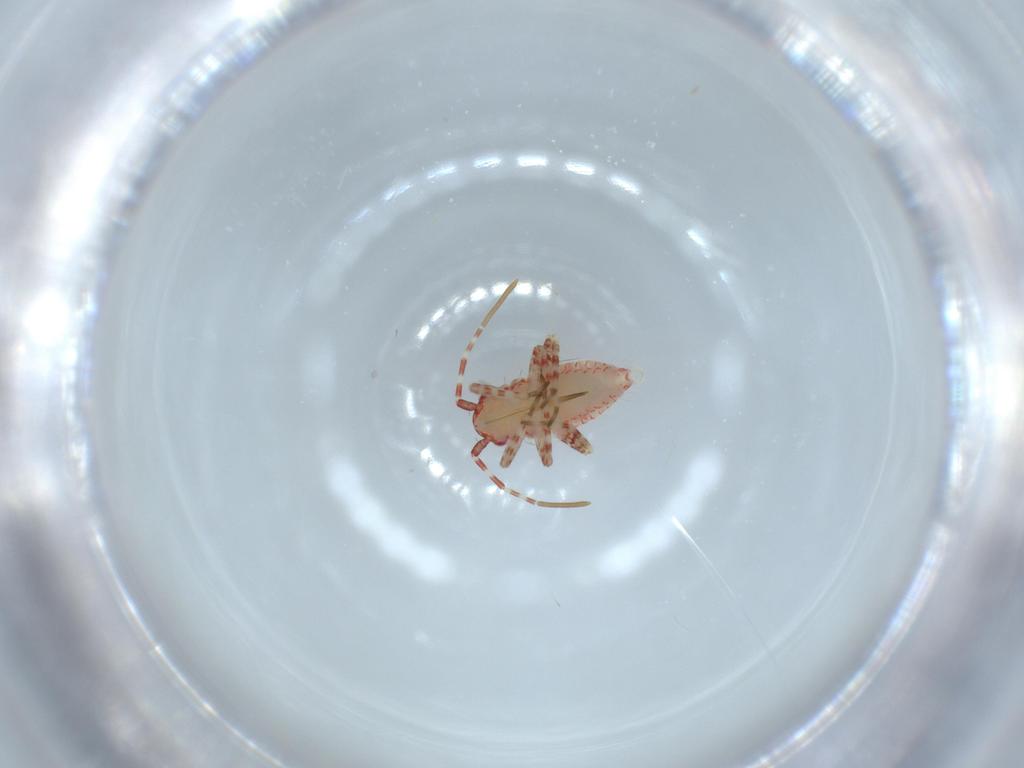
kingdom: Animalia
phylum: Arthropoda
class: Insecta
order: Hemiptera
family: Miridae
